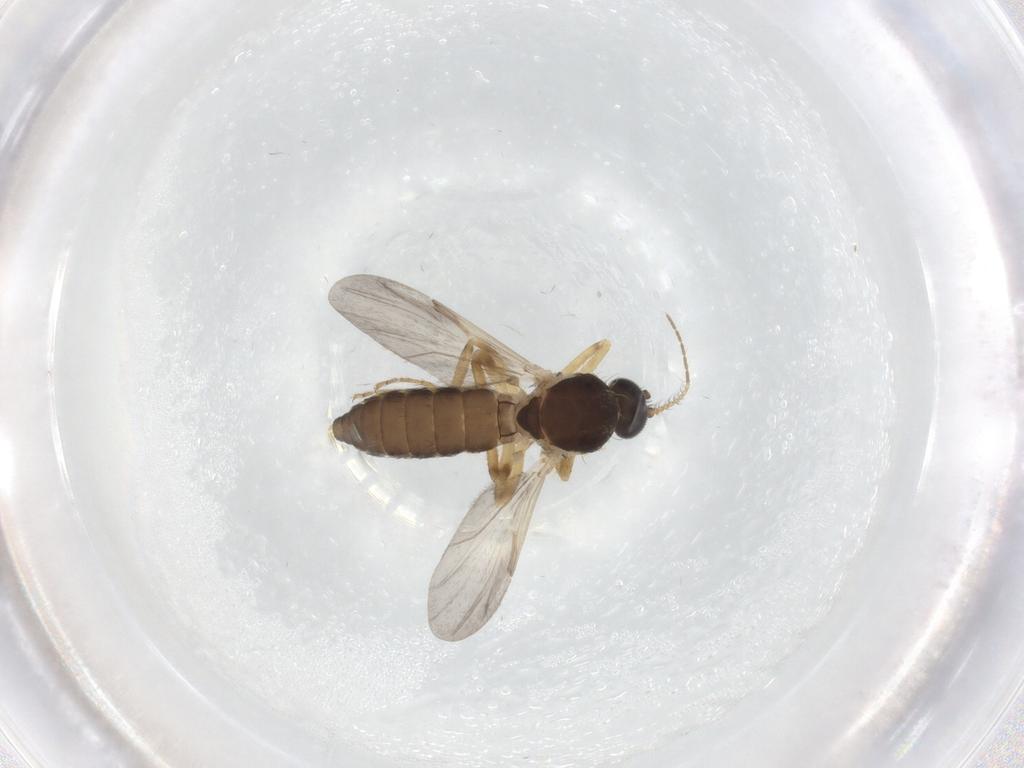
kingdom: Animalia
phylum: Arthropoda
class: Insecta
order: Diptera
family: Ceratopogonidae
